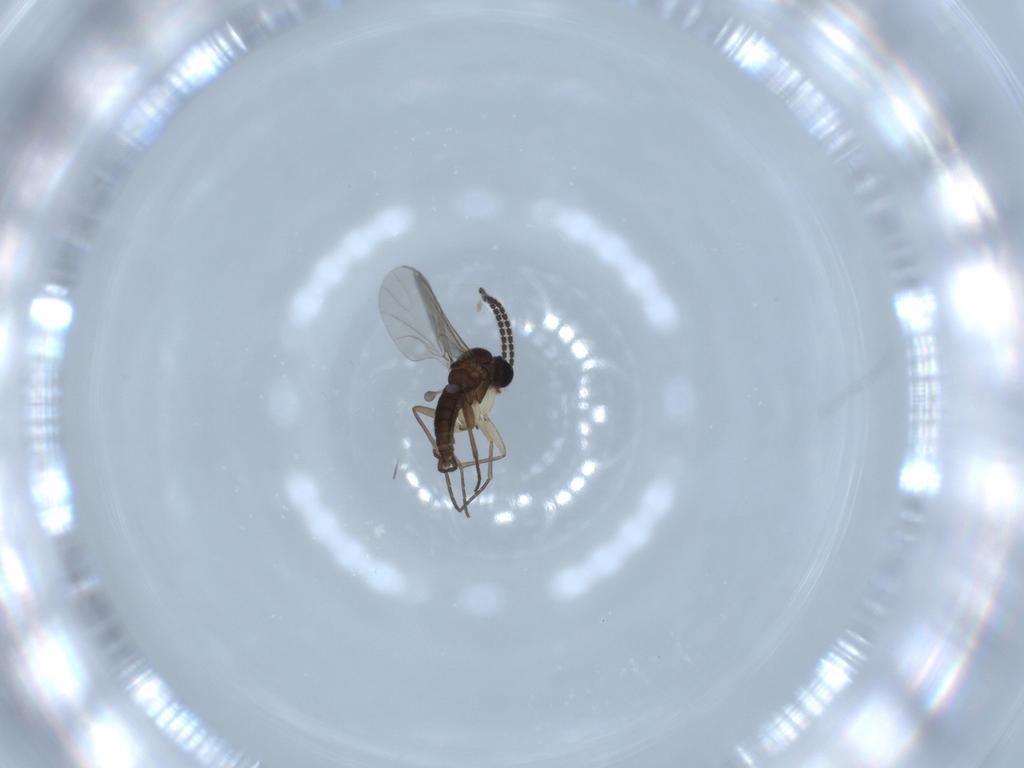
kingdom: Animalia
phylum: Arthropoda
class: Insecta
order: Diptera
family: Sciaridae
